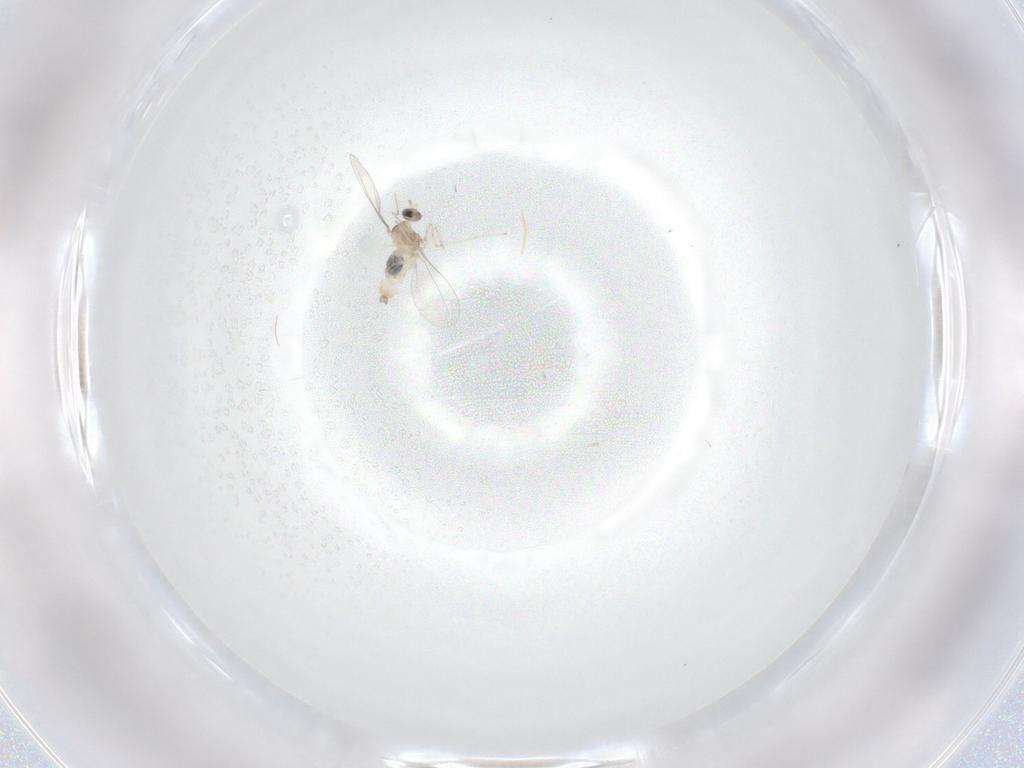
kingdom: Animalia
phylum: Arthropoda
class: Insecta
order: Diptera
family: Cecidomyiidae
